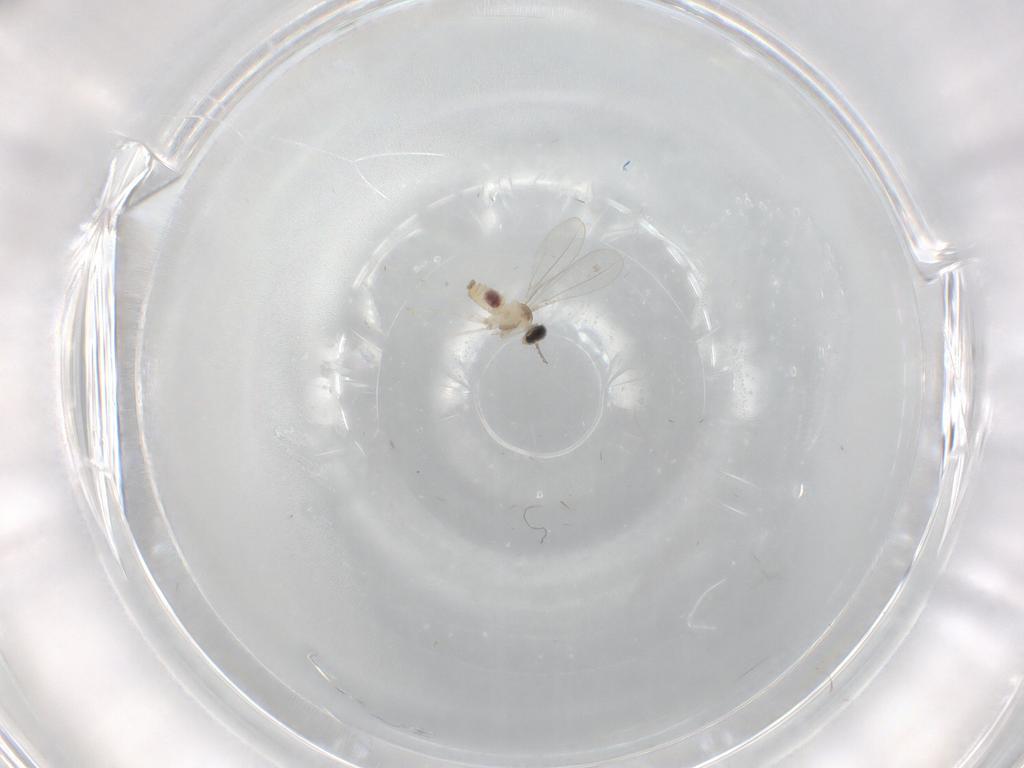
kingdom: Animalia
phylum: Arthropoda
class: Insecta
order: Diptera
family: Cecidomyiidae
